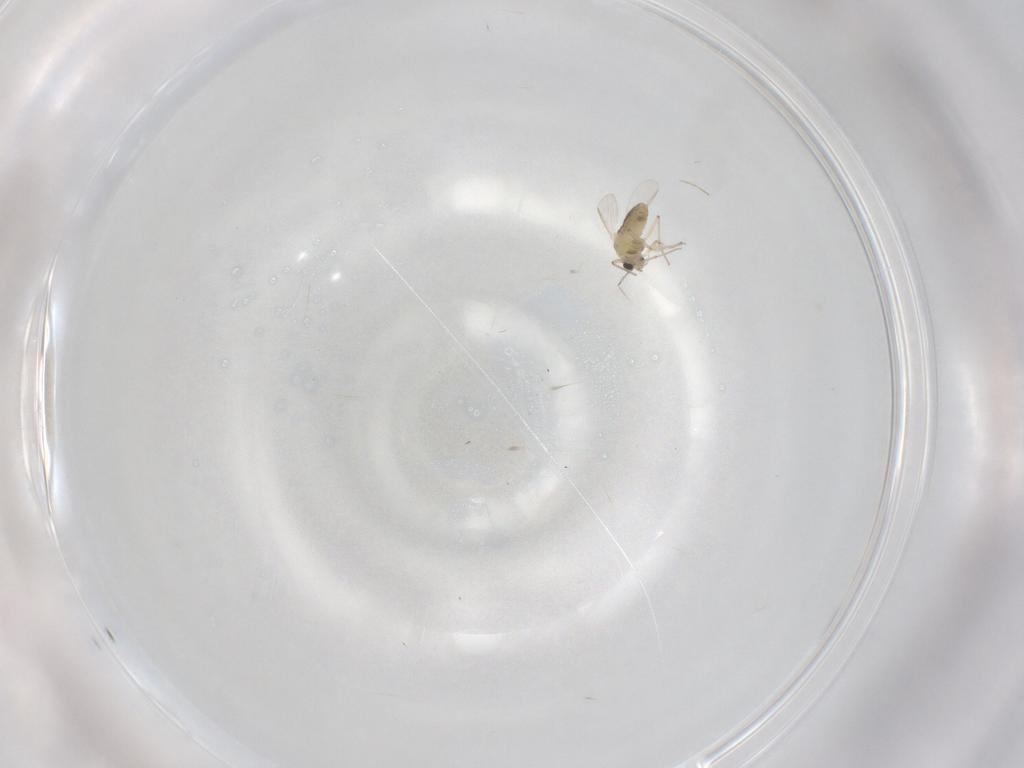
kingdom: Animalia
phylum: Arthropoda
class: Insecta
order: Diptera
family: Chironomidae
